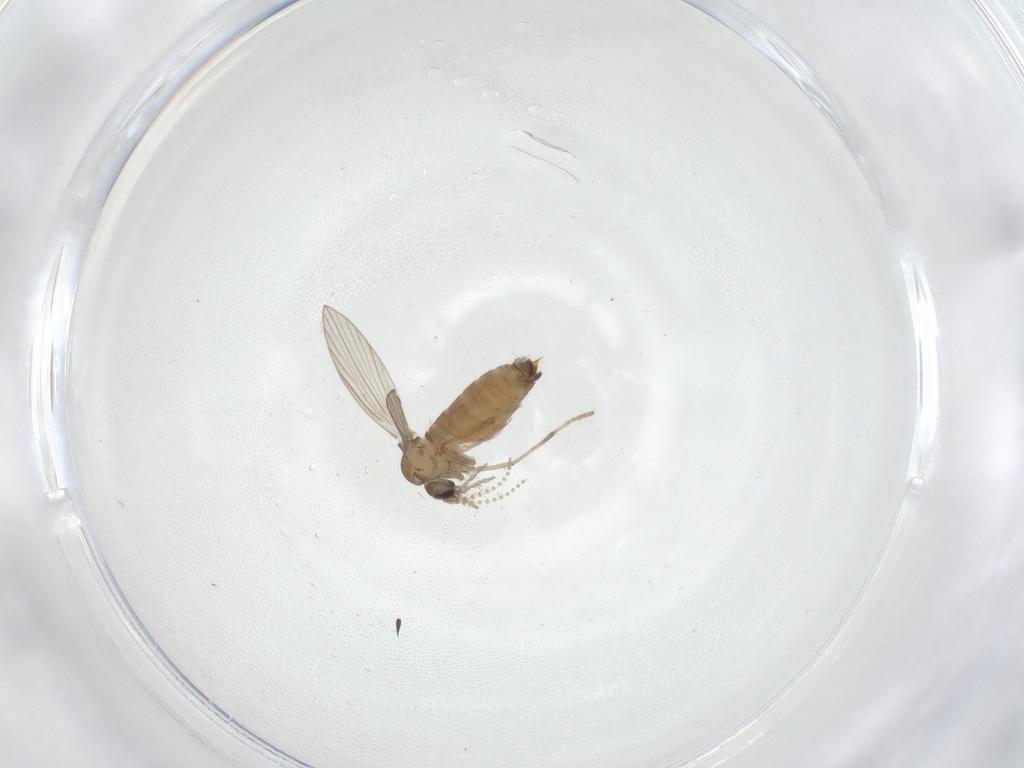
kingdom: Animalia
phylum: Arthropoda
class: Insecta
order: Diptera
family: Psychodidae
